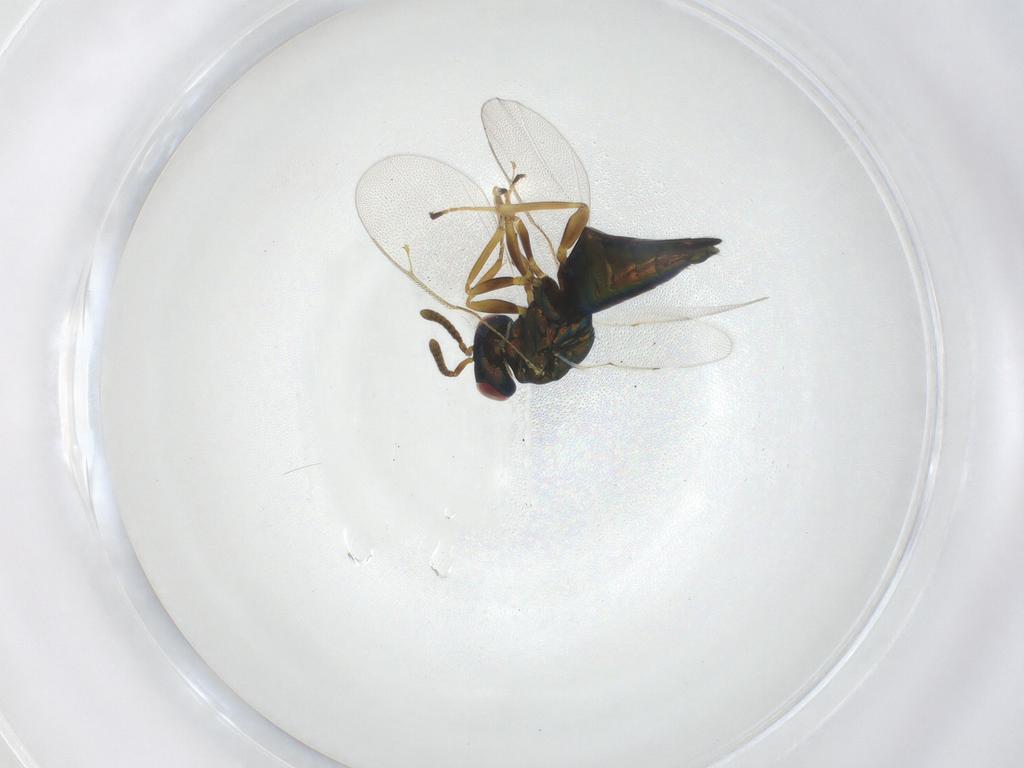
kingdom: Animalia
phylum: Arthropoda
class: Insecta
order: Hymenoptera
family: Pteromalidae
